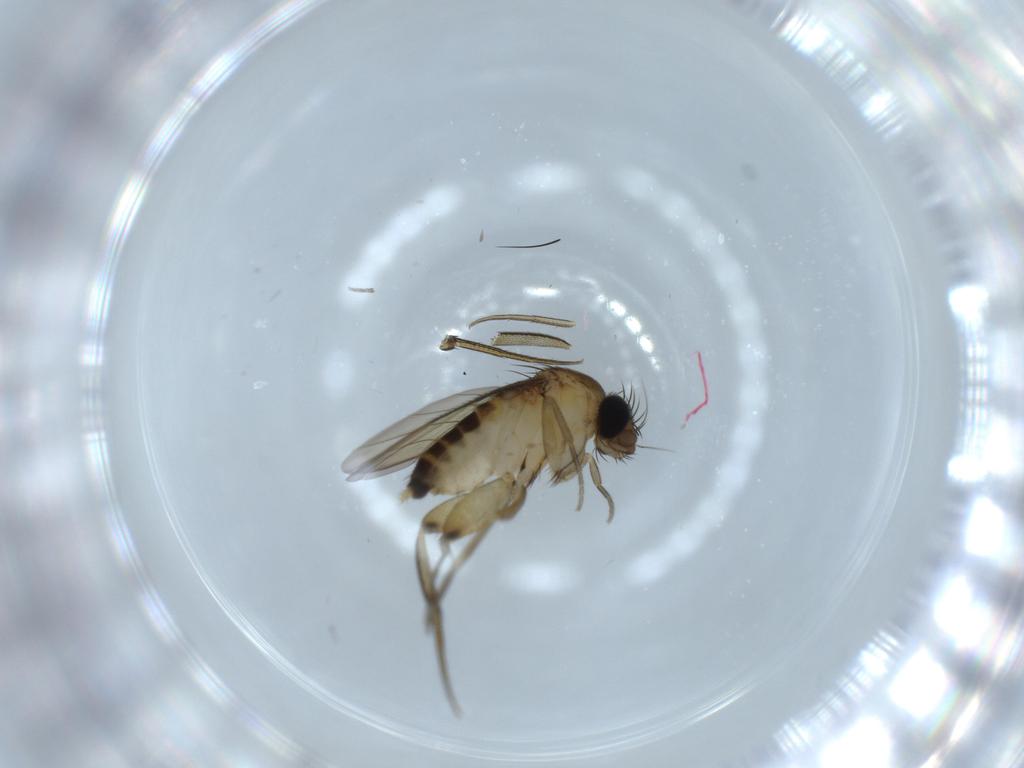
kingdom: Animalia
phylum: Arthropoda
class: Insecta
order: Diptera
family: Phoridae
